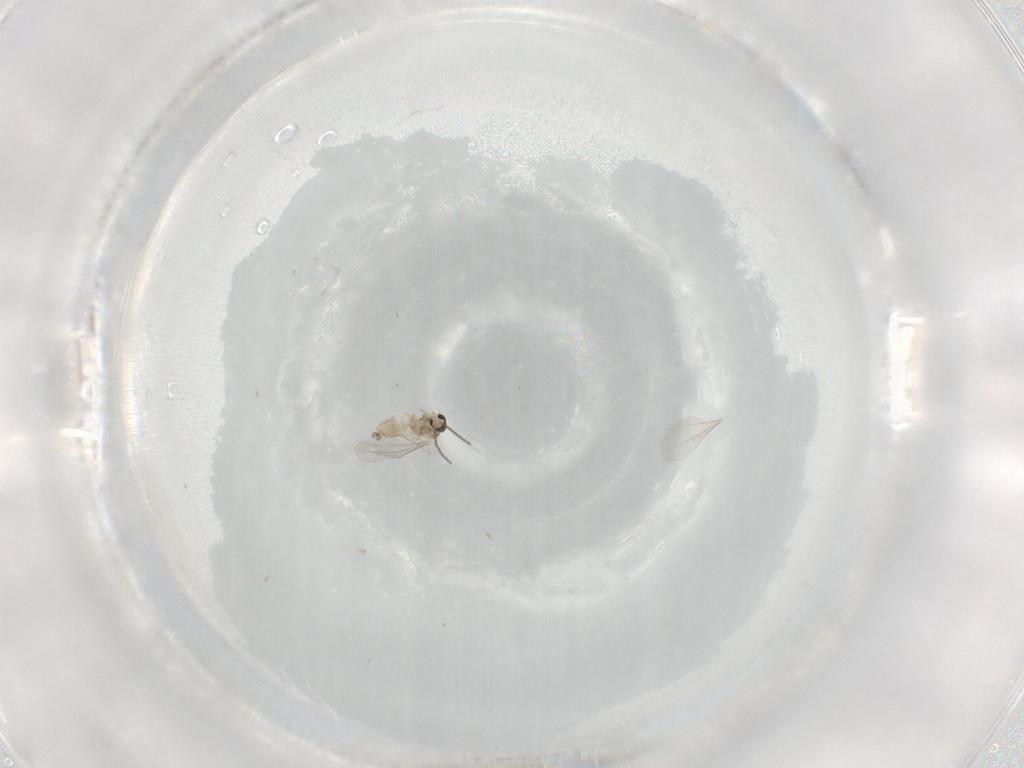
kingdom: Animalia
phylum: Arthropoda
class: Insecta
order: Diptera
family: Cecidomyiidae
